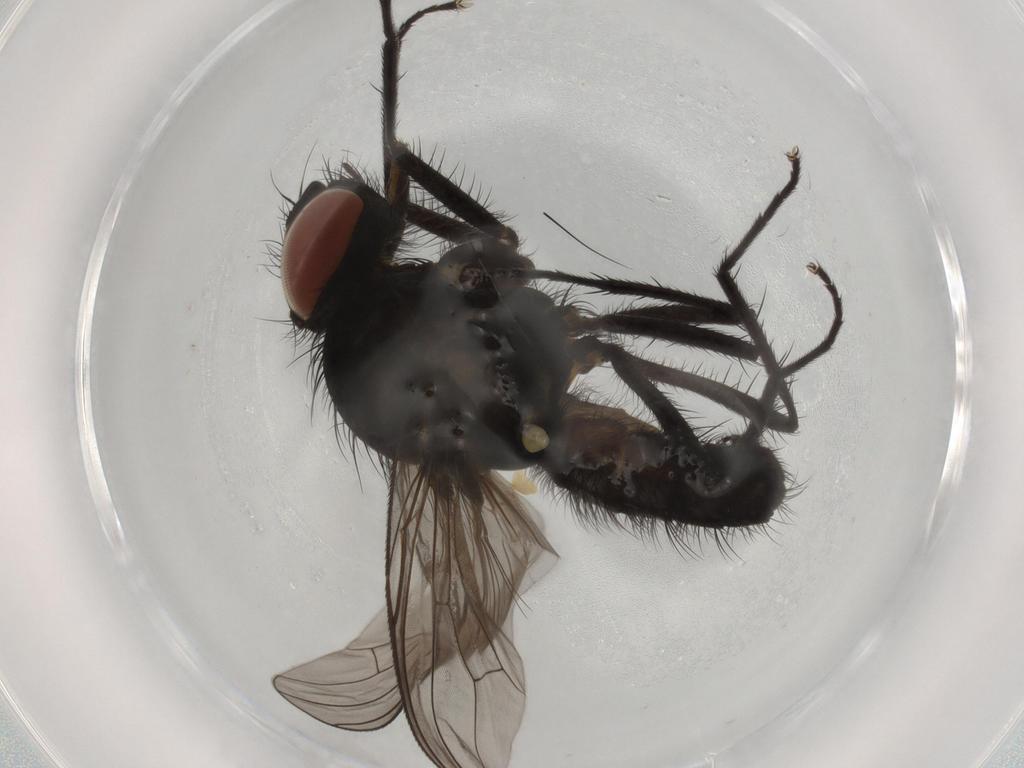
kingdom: Animalia
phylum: Arthropoda
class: Insecta
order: Diptera
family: Anthomyiidae
